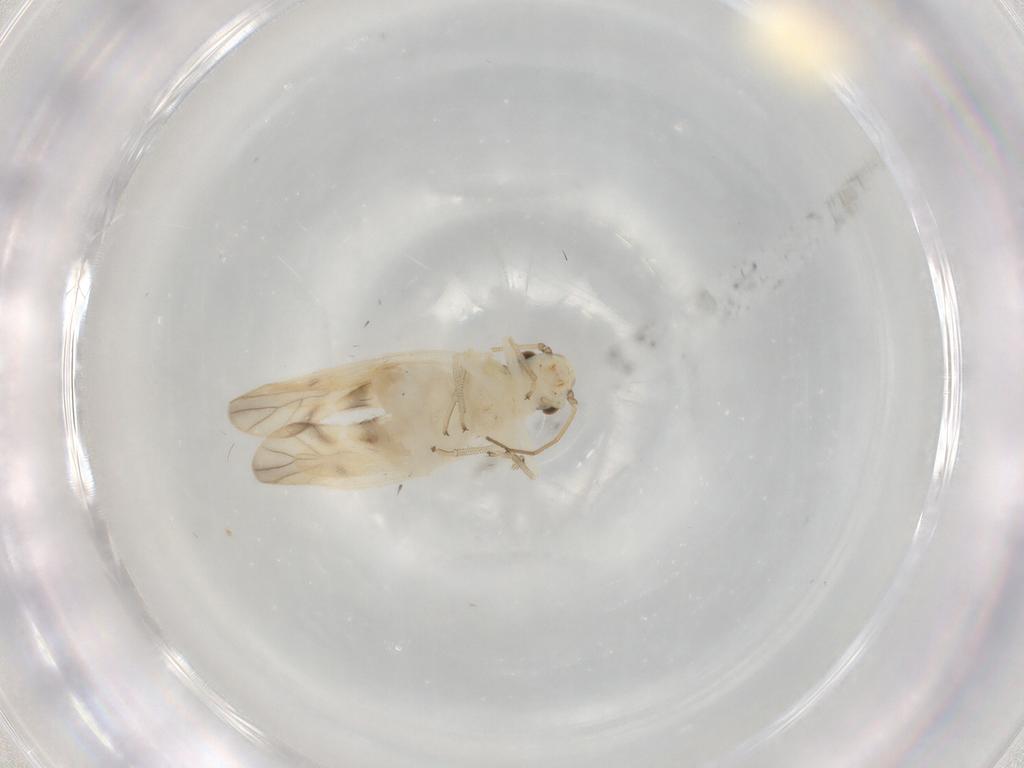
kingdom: Animalia
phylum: Arthropoda
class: Insecta
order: Psocodea
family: Caeciliusidae
